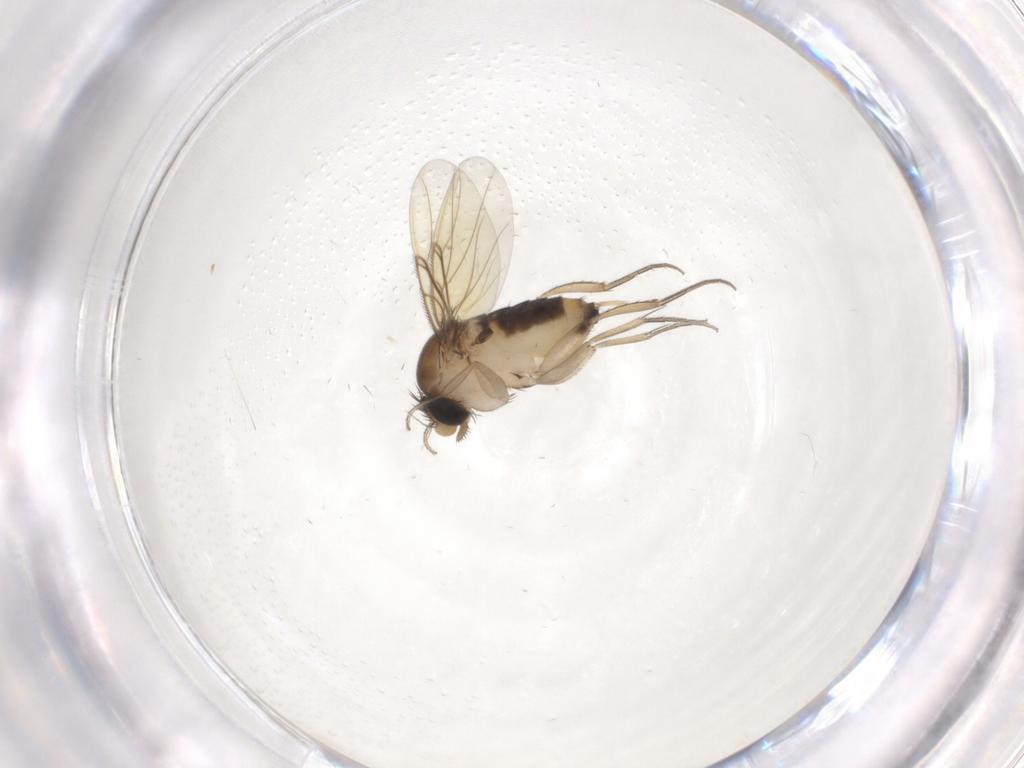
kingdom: Animalia
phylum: Arthropoda
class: Insecta
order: Diptera
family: Phoridae
